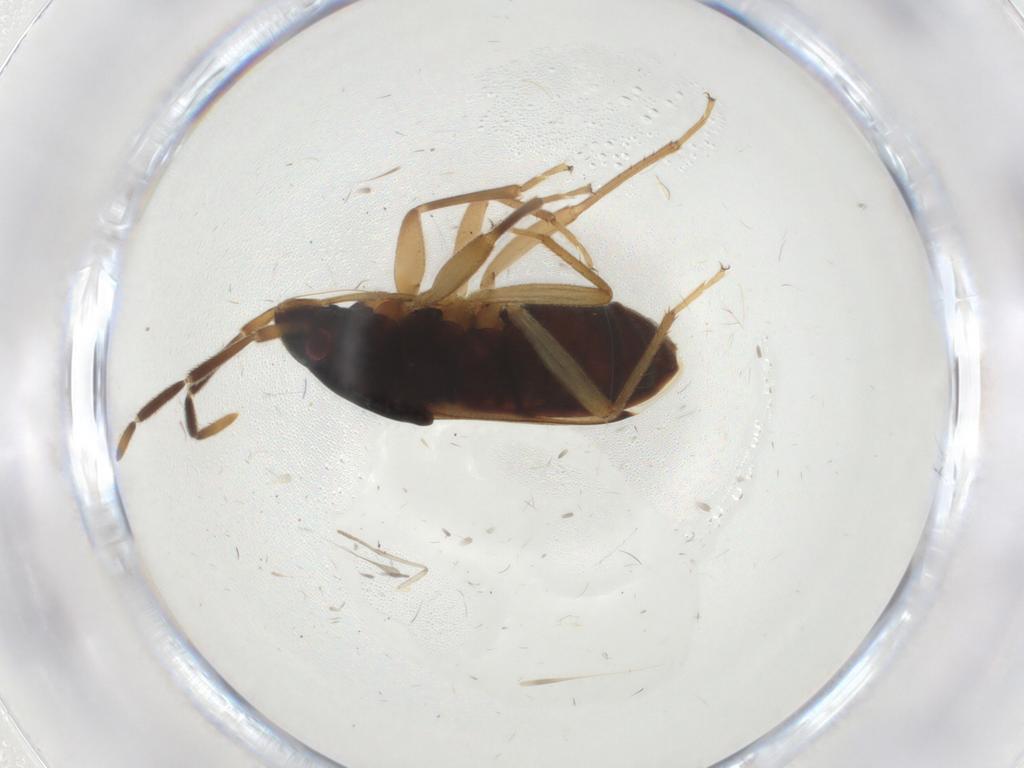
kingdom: Animalia
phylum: Arthropoda
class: Insecta
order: Hemiptera
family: Rhyparochromidae
